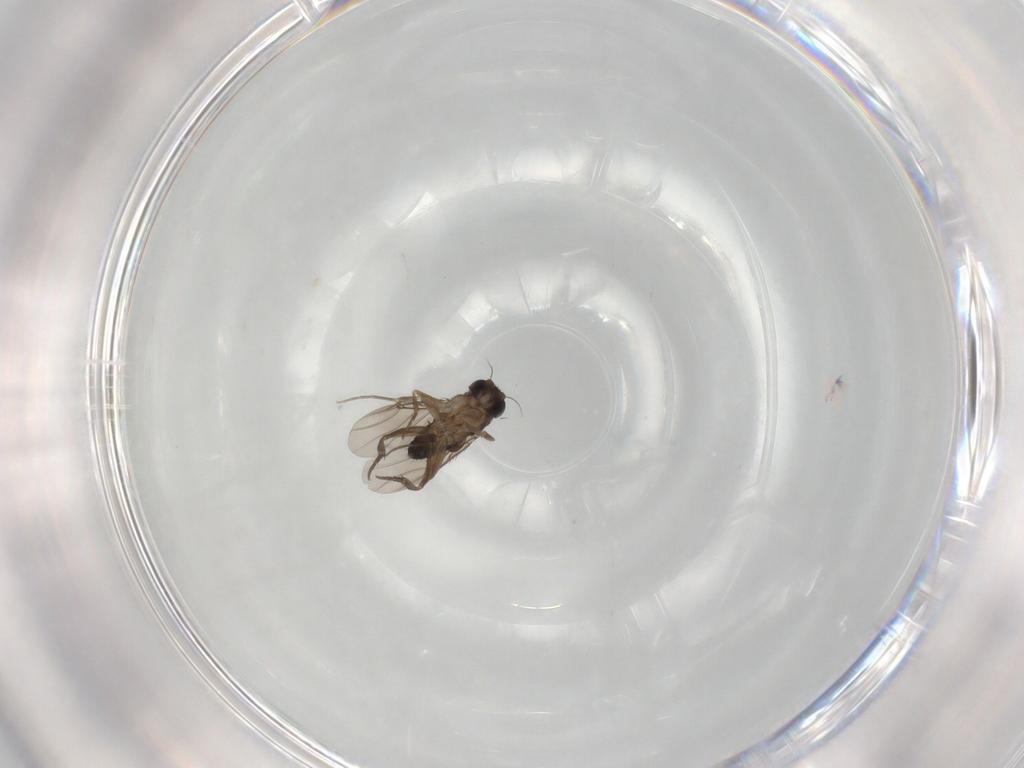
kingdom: Animalia
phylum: Arthropoda
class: Insecta
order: Diptera
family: Phoridae
